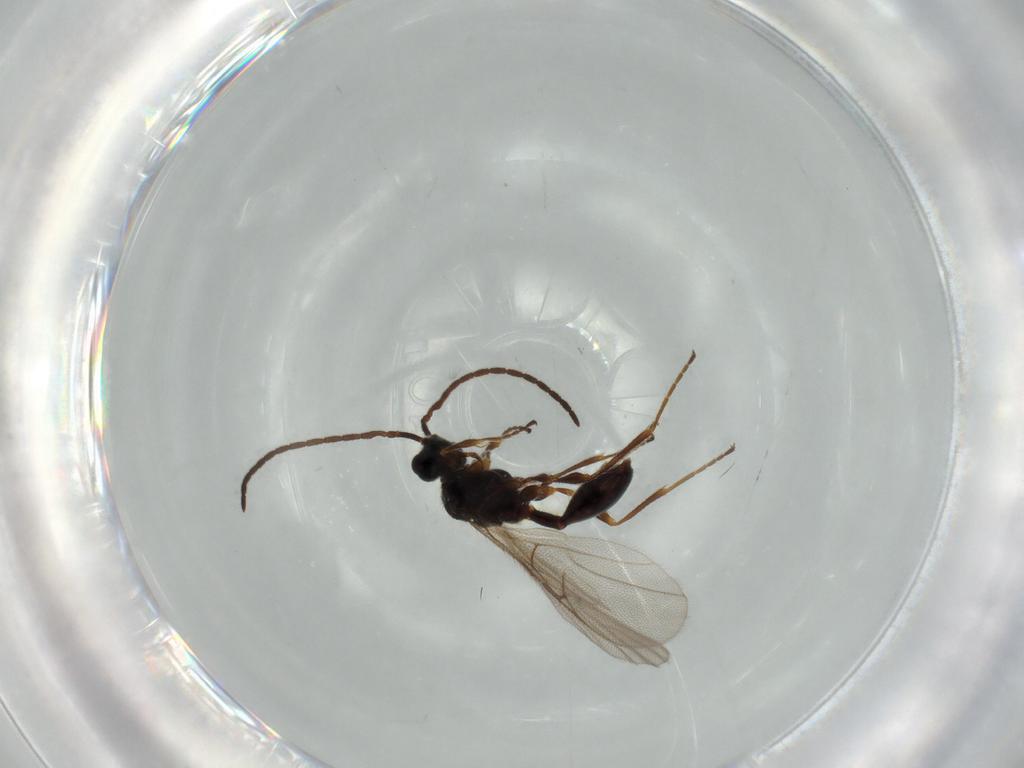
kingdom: Animalia
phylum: Arthropoda
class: Insecta
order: Hymenoptera
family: Ichneumonidae
